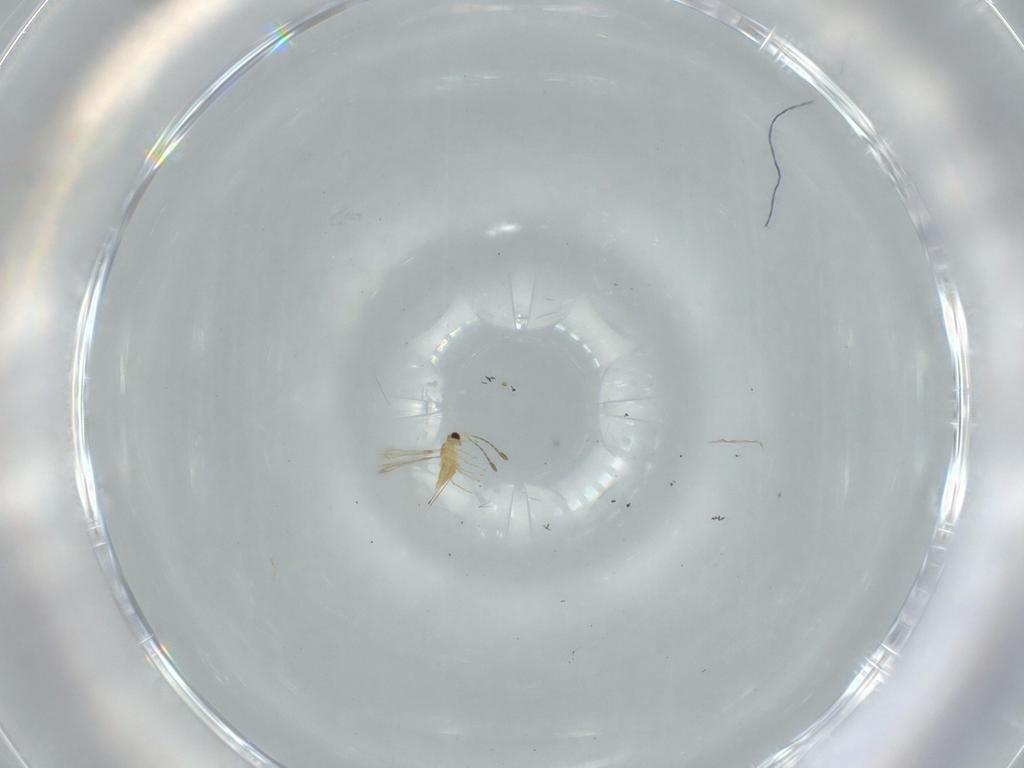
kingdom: Animalia
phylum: Arthropoda
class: Insecta
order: Hymenoptera
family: Mymaridae
